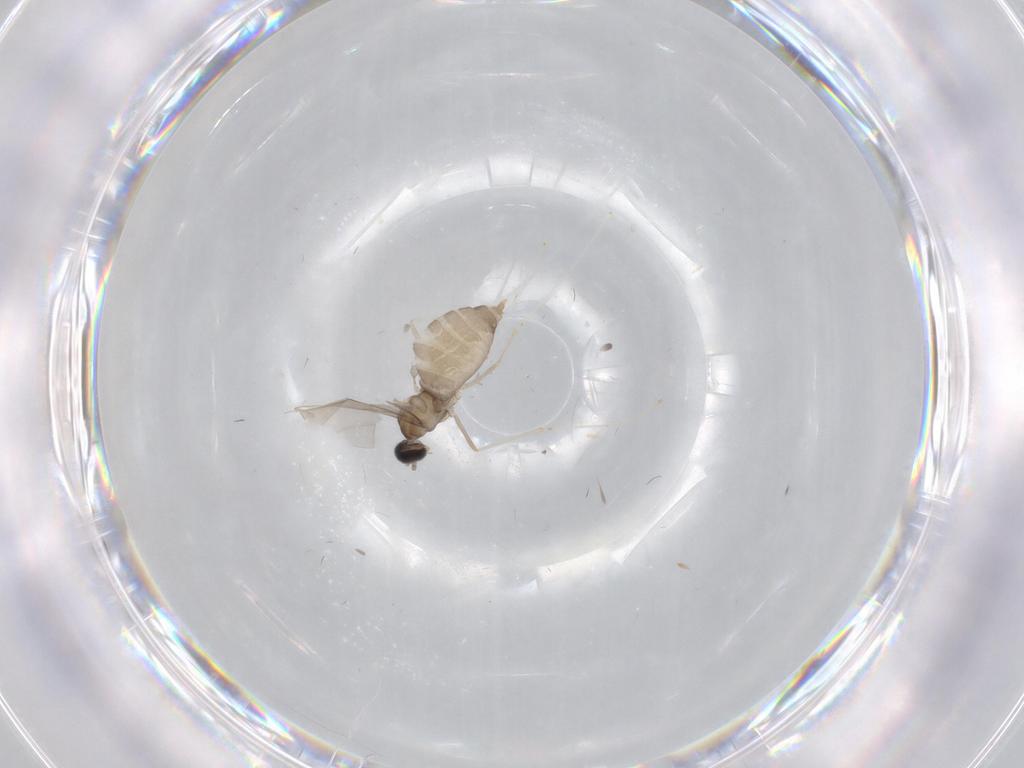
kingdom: Animalia
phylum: Arthropoda
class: Insecta
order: Diptera
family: Cecidomyiidae
